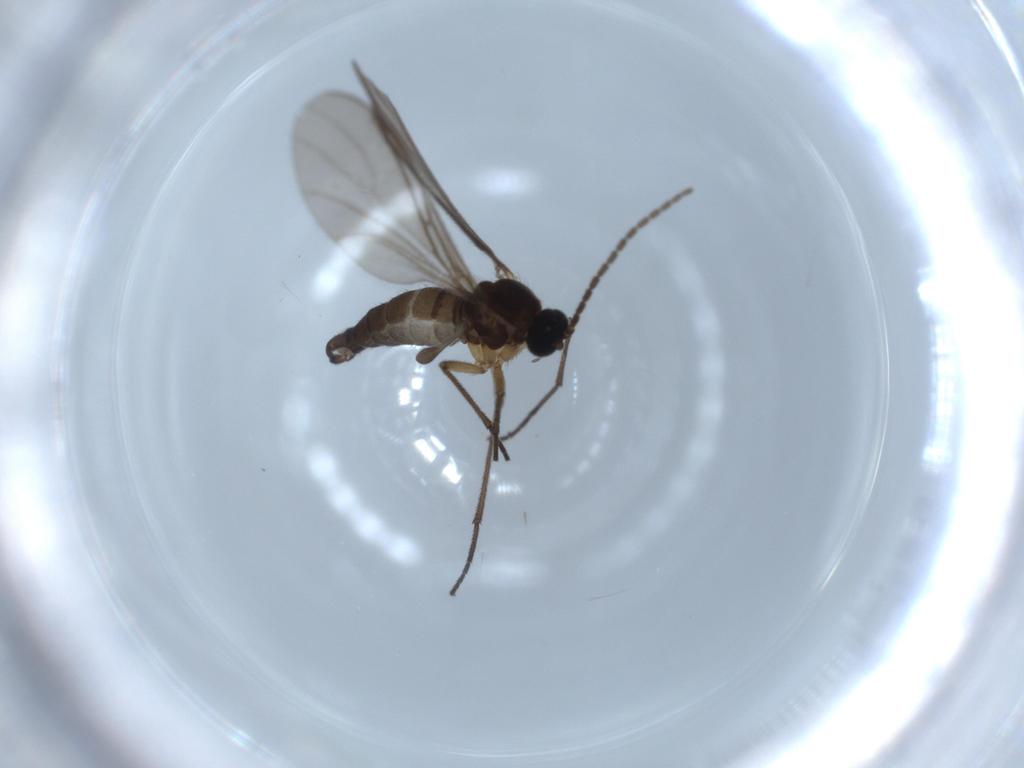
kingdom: Animalia
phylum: Arthropoda
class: Insecta
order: Diptera
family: Sciaridae
